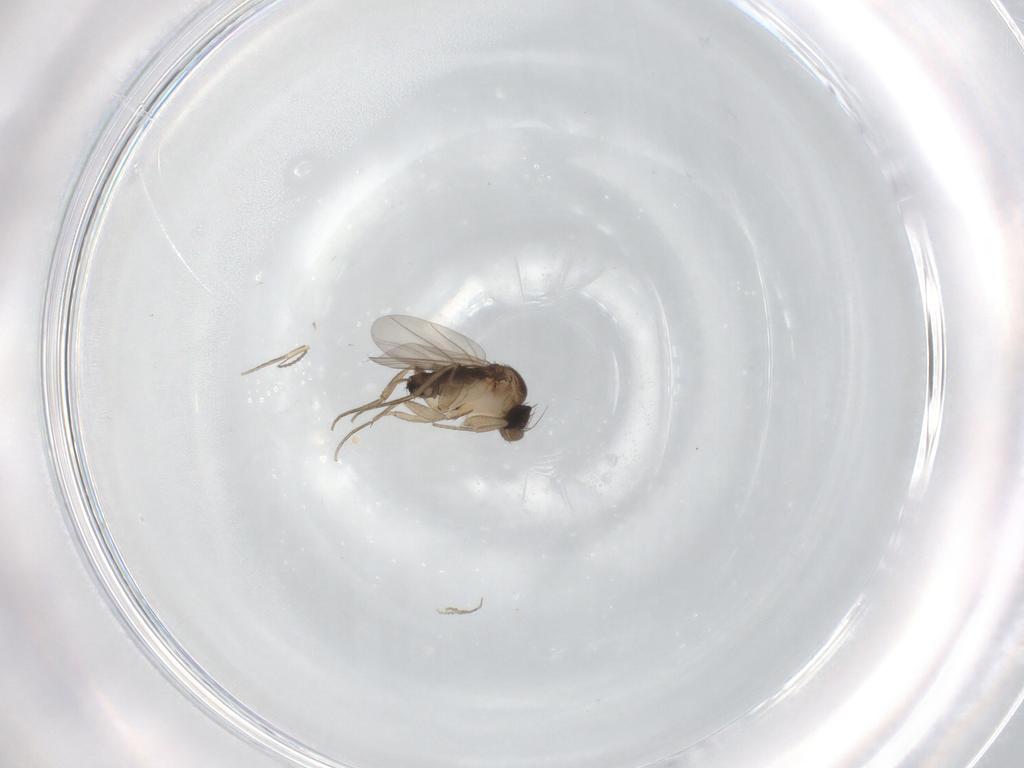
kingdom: Animalia
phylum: Arthropoda
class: Insecta
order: Diptera
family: Phoridae
